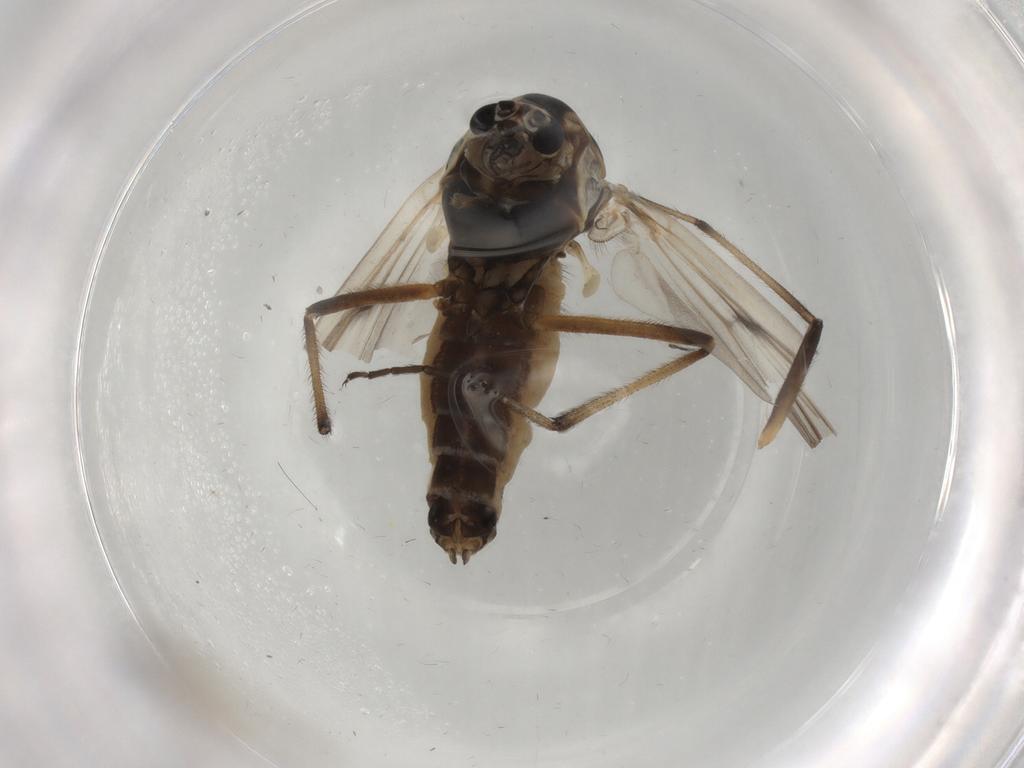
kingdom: Animalia
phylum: Arthropoda
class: Insecta
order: Diptera
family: Chironomidae
